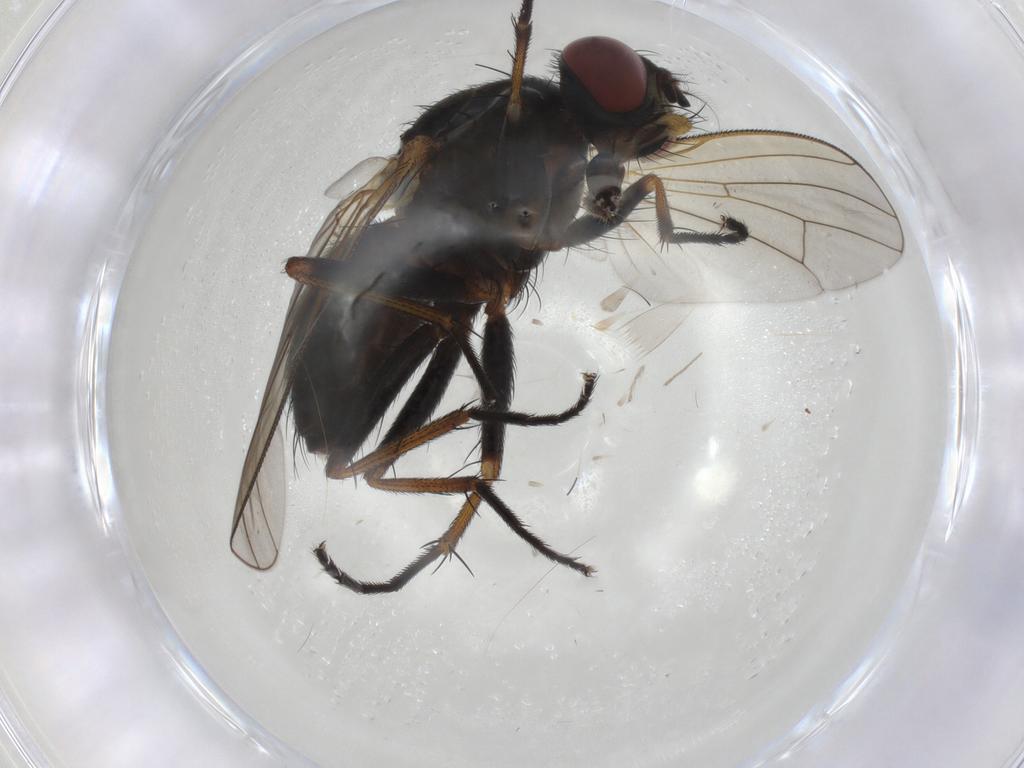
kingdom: Animalia
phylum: Arthropoda
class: Insecta
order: Diptera
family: Muscidae
